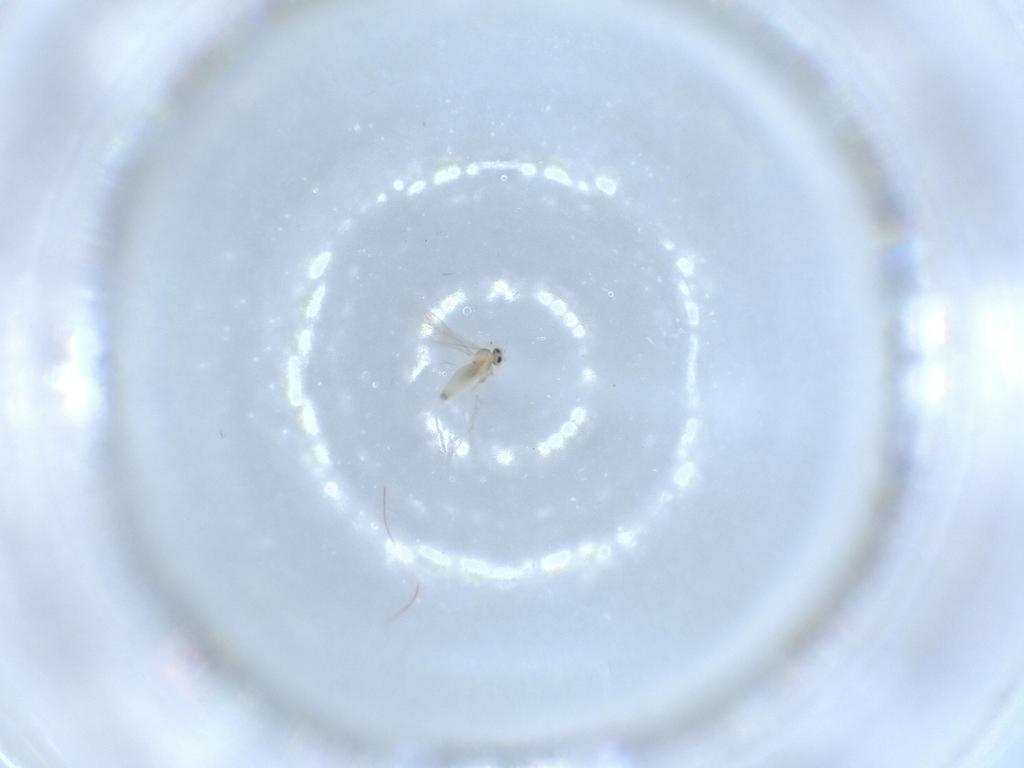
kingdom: Animalia
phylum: Arthropoda
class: Insecta
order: Diptera
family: Cecidomyiidae
